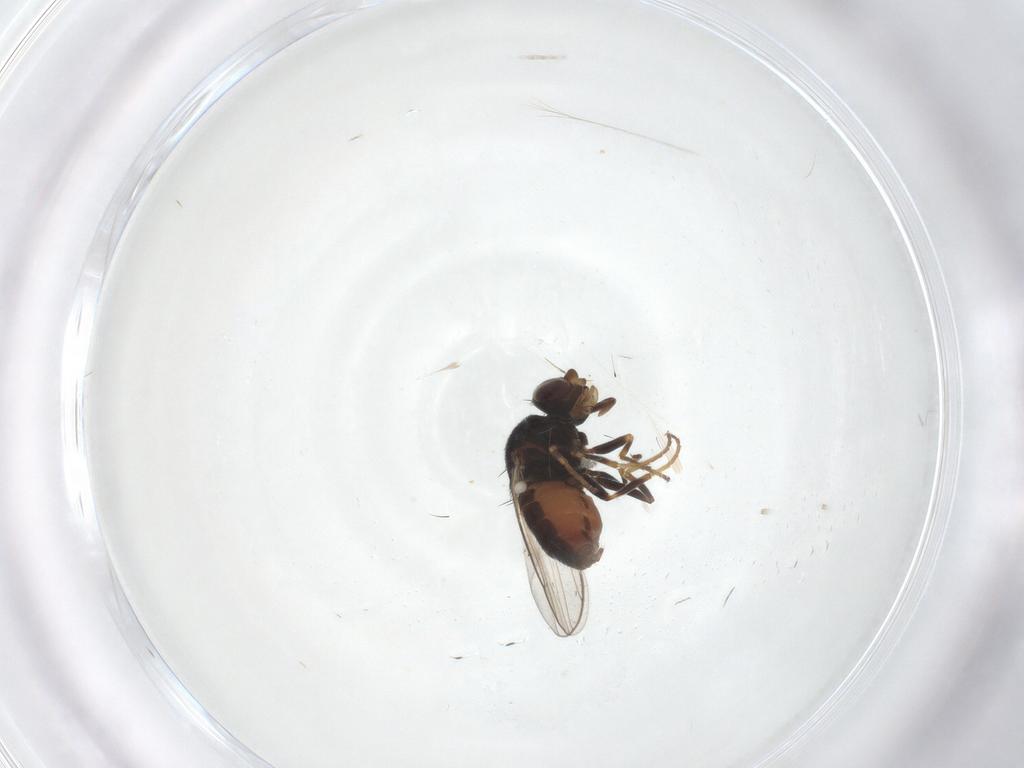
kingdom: Animalia
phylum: Arthropoda
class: Insecta
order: Diptera
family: Chloropidae
